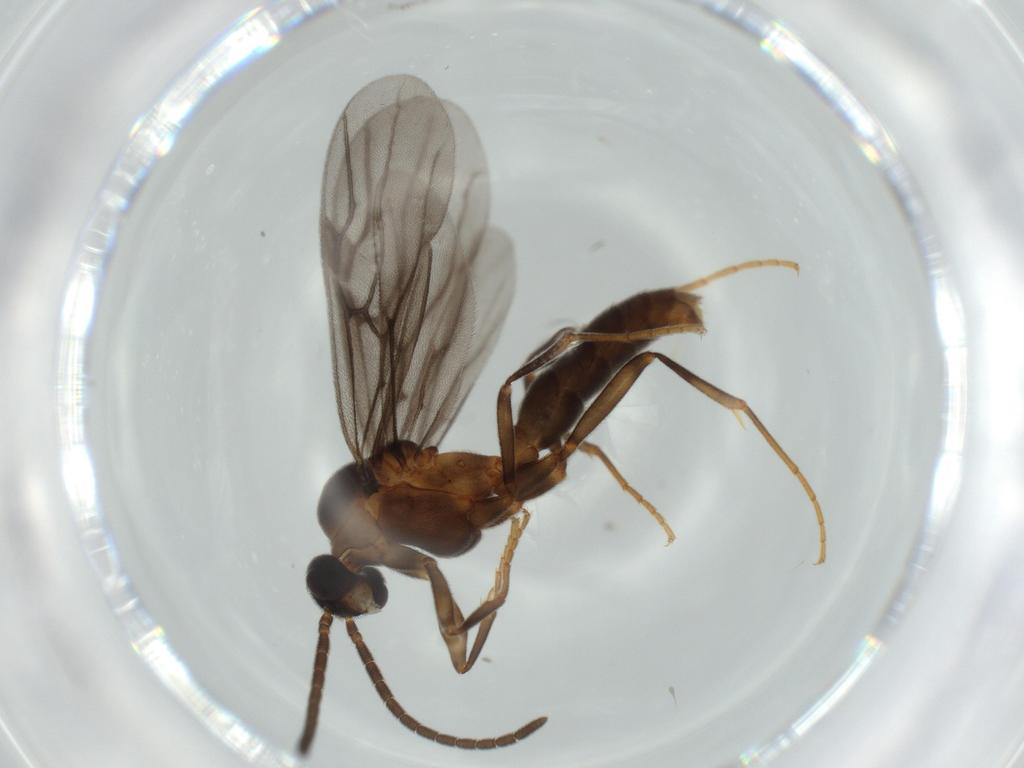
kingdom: Animalia
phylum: Arthropoda
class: Insecta
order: Hymenoptera
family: Formicidae
